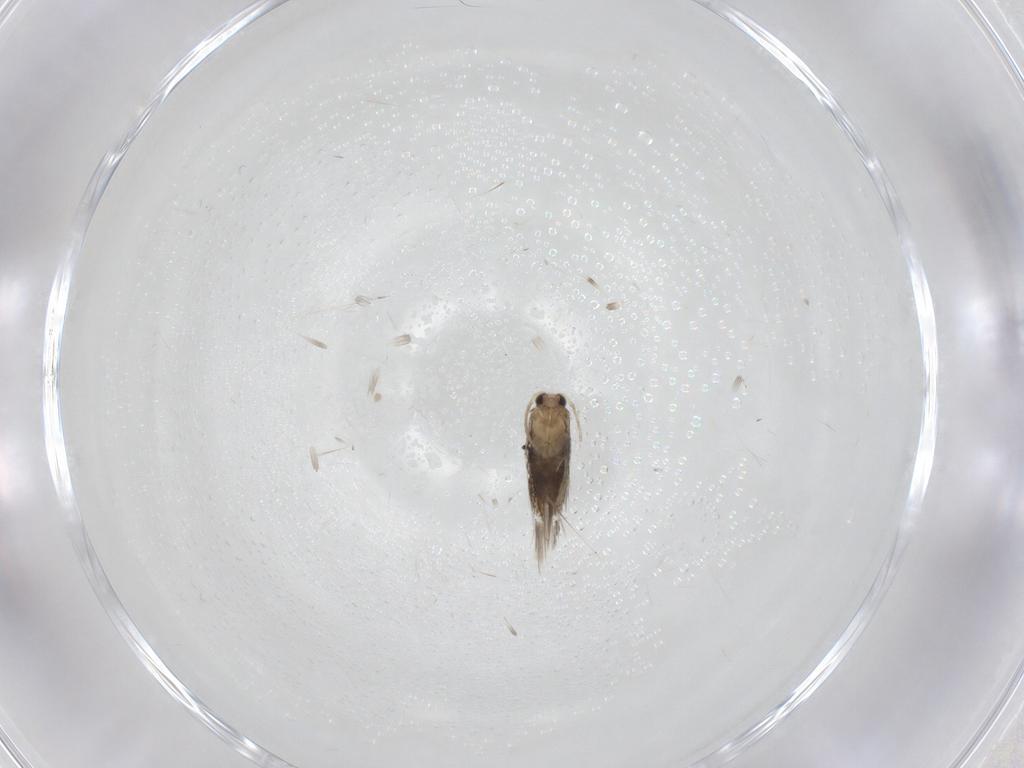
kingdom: Animalia
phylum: Arthropoda
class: Insecta
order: Lepidoptera
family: Nepticulidae
